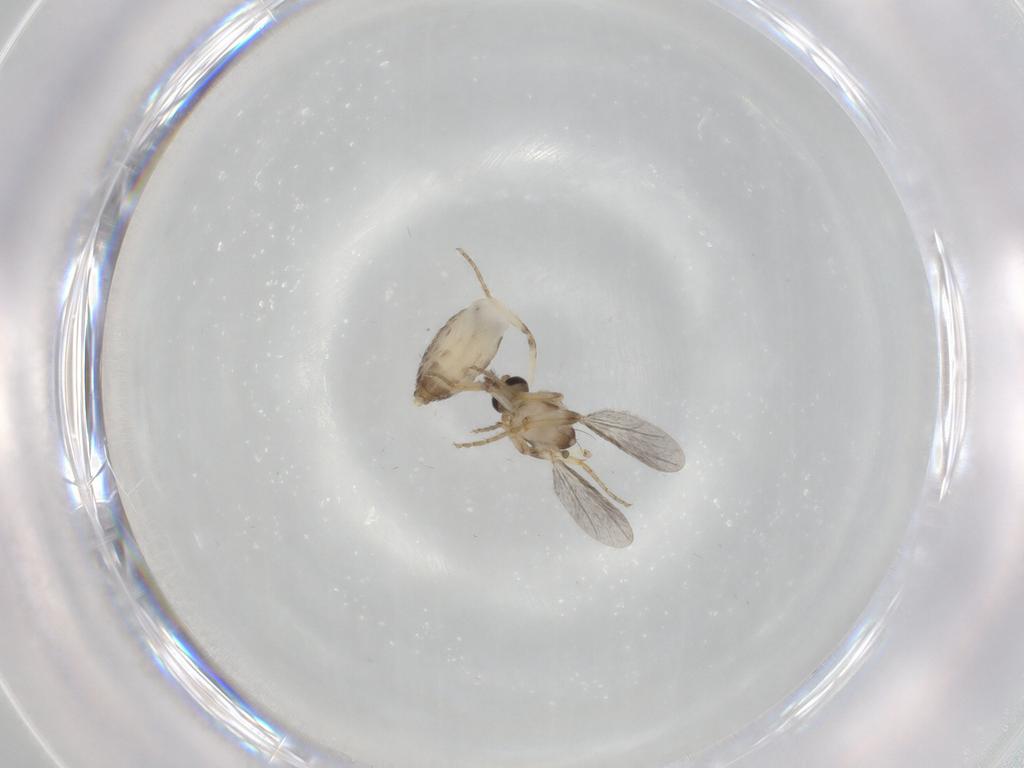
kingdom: Animalia
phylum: Arthropoda
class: Insecta
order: Diptera
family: Ceratopogonidae
